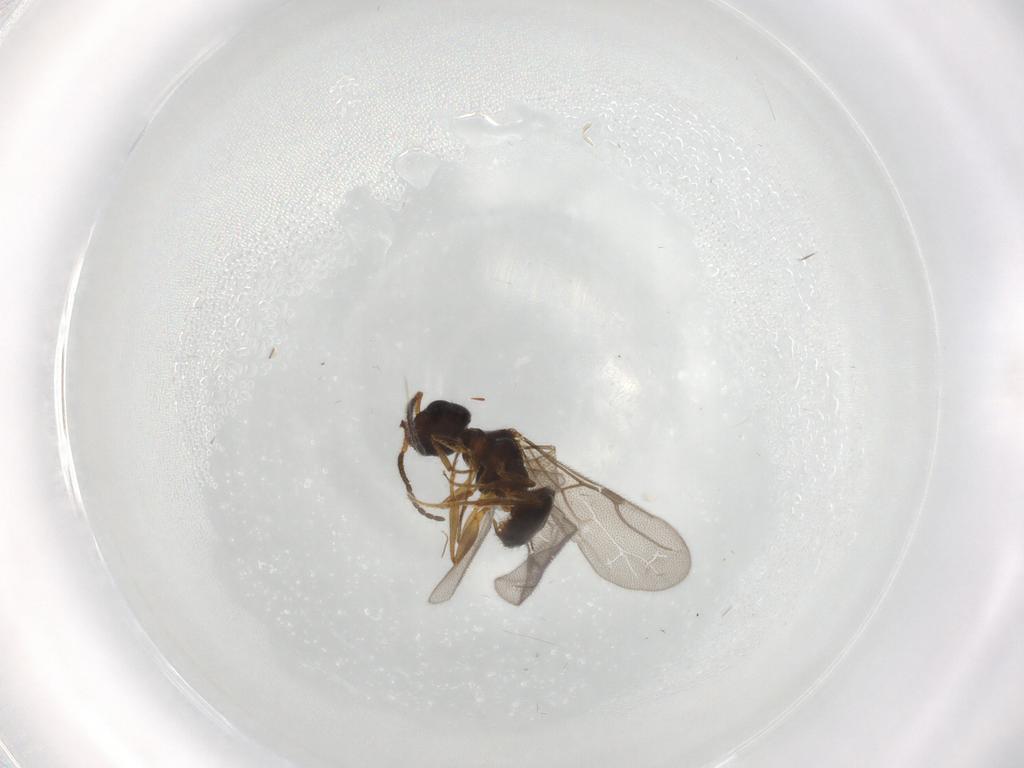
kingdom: Animalia
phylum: Arthropoda
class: Insecta
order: Hymenoptera
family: Bethylidae
